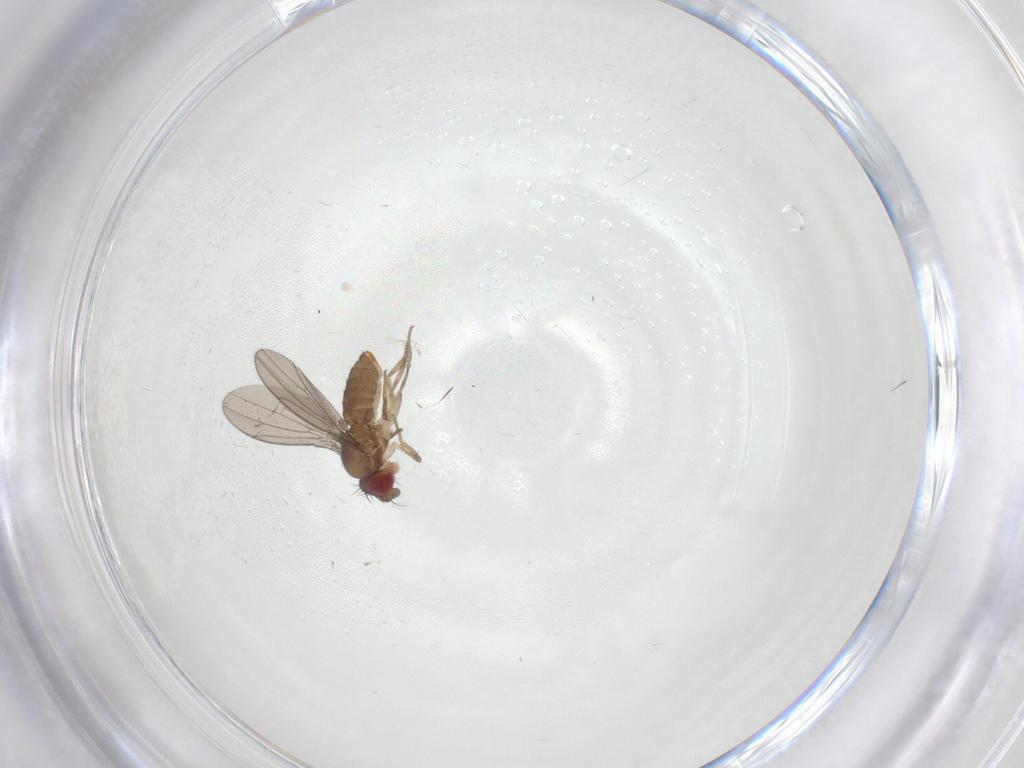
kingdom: Animalia
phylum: Arthropoda
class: Insecta
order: Diptera
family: Drosophilidae
